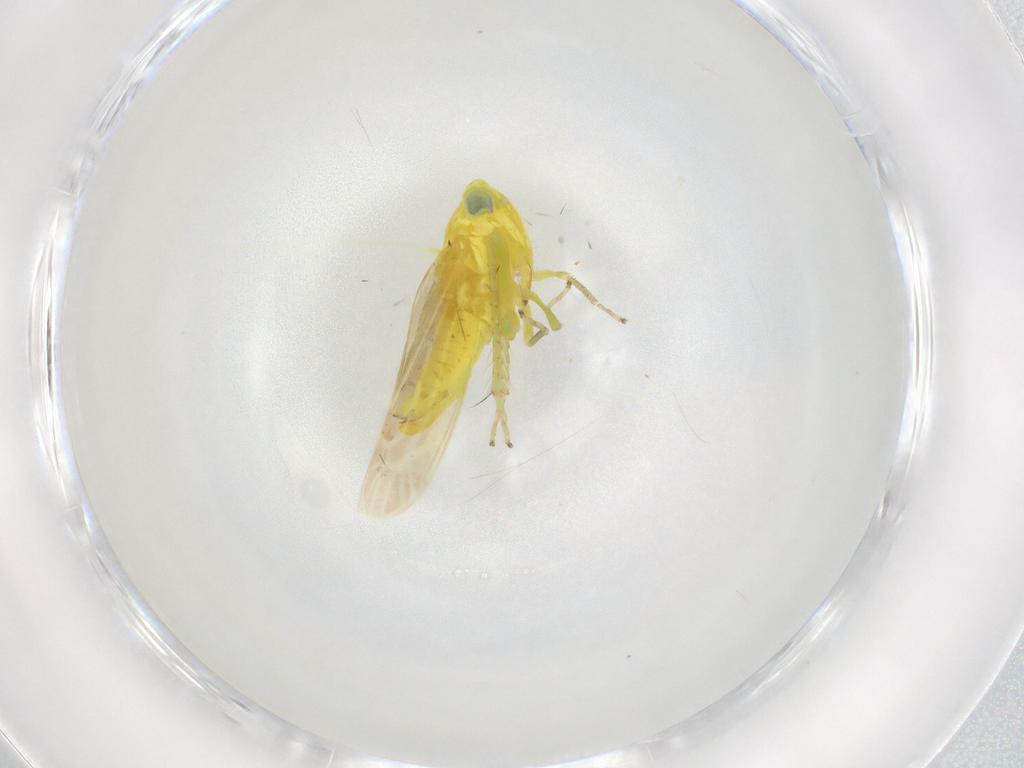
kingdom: Animalia
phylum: Arthropoda
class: Insecta
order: Hemiptera
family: Cicadellidae
